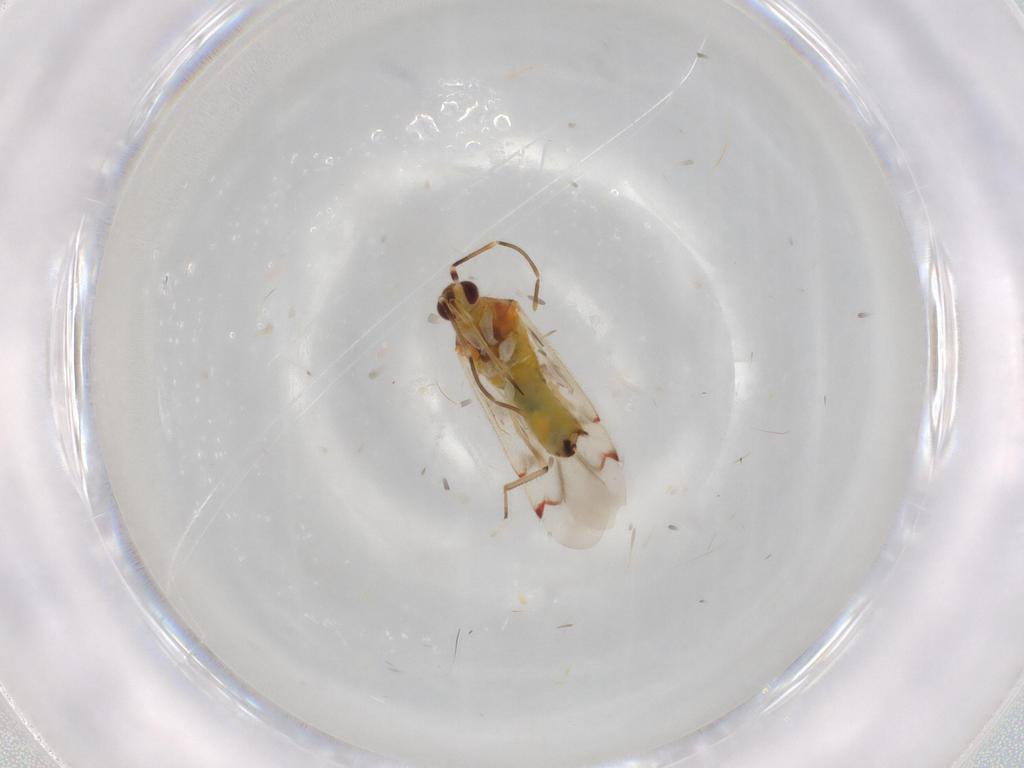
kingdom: Animalia
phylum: Arthropoda
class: Insecta
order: Hemiptera
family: Miridae
